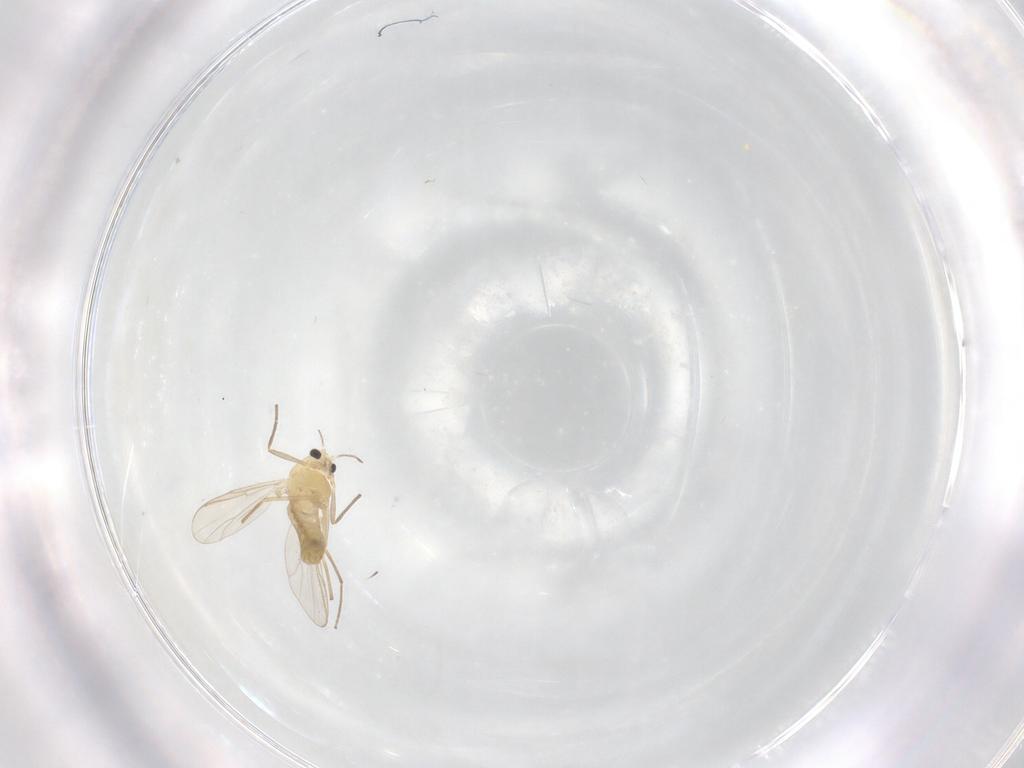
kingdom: Animalia
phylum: Arthropoda
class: Insecta
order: Diptera
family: Chironomidae
